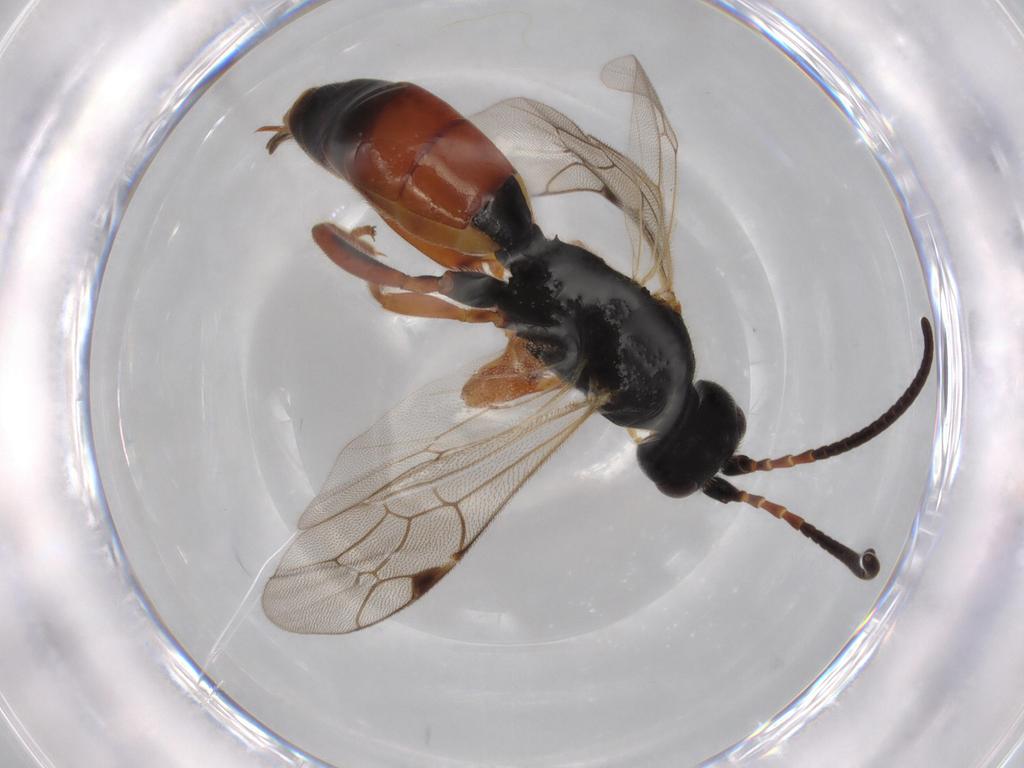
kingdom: Animalia
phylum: Arthropoda
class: Insecta
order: Hymenoptera
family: Ichneumonidae
